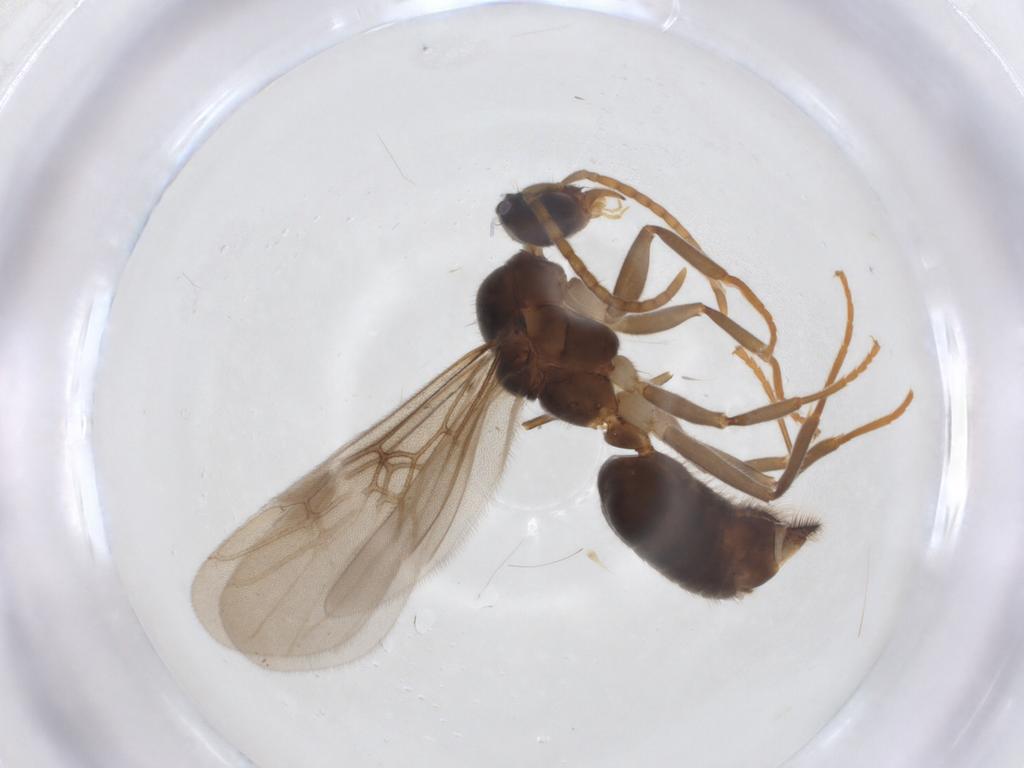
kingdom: Animalia
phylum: Arthropoda
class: Insecta
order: Hymenoptera
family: Formicidae
